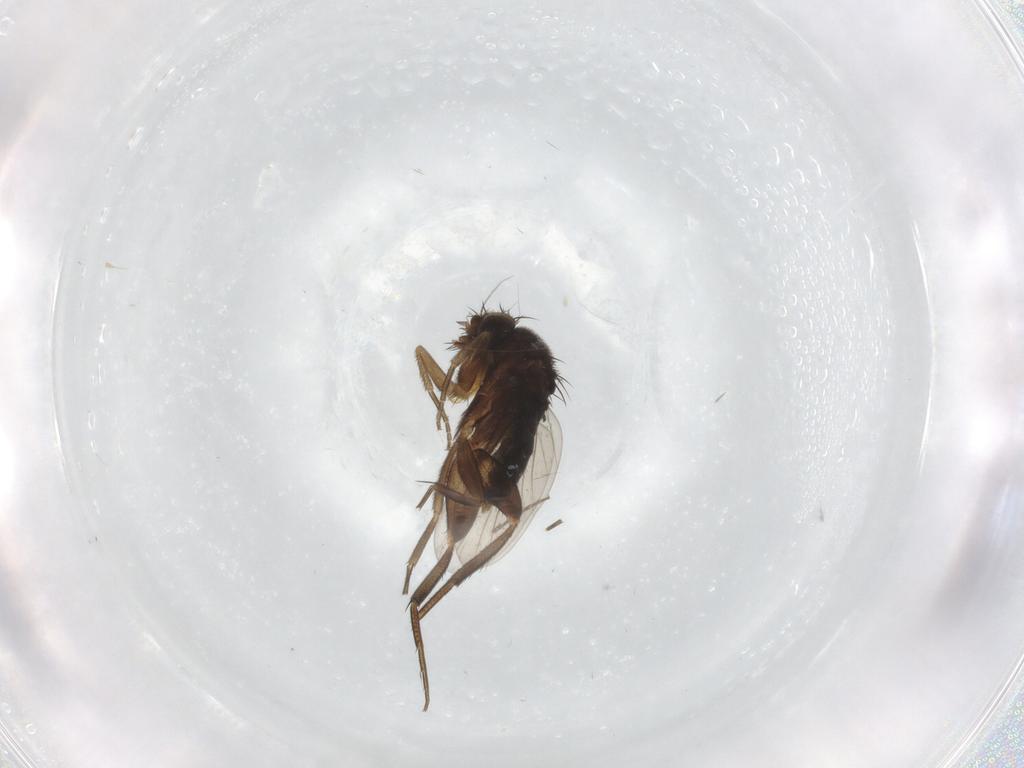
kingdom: Animalia
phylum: Arthropoda
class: Insecta
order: Diptera
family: Phoridae
